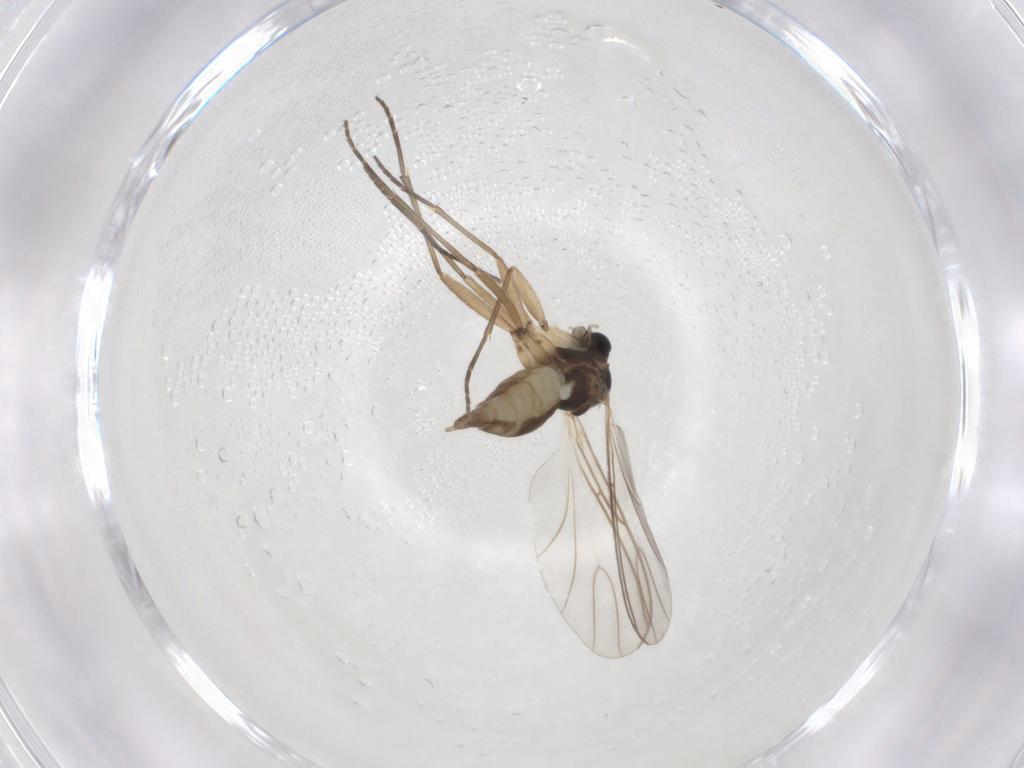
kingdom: Animalia
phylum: Arthropoda
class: Insecta
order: Diptera
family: Sciaridae
